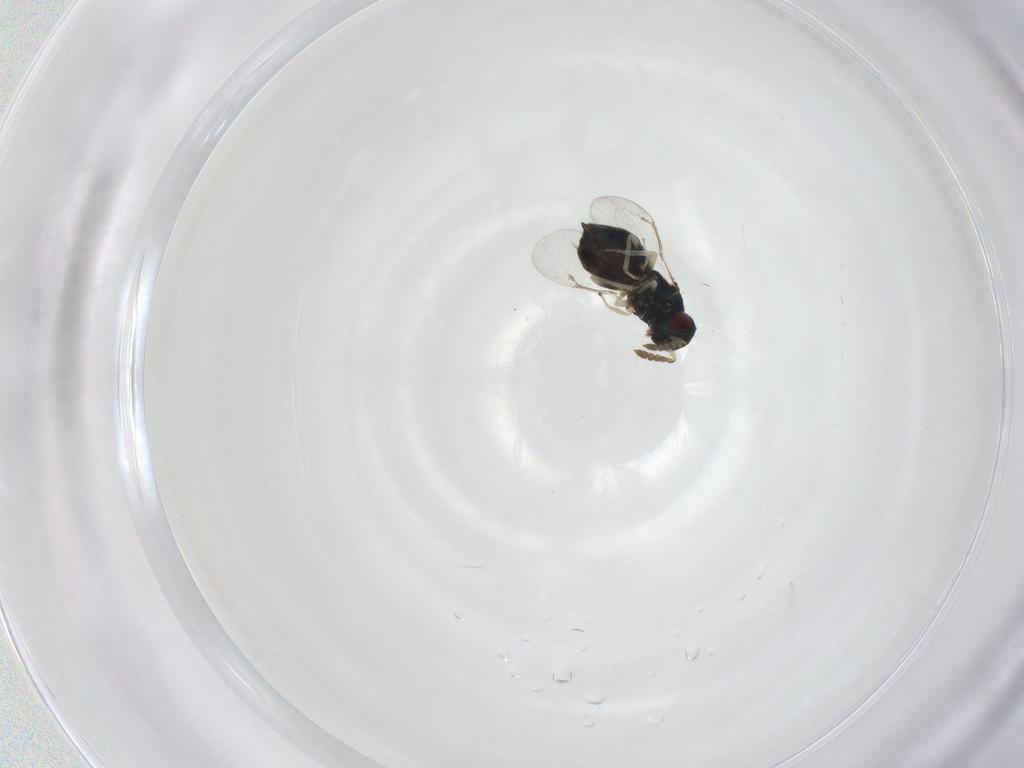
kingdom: Animalia
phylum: Arthropoda
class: Insecta
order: Hymenoptera
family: Eulophidae
